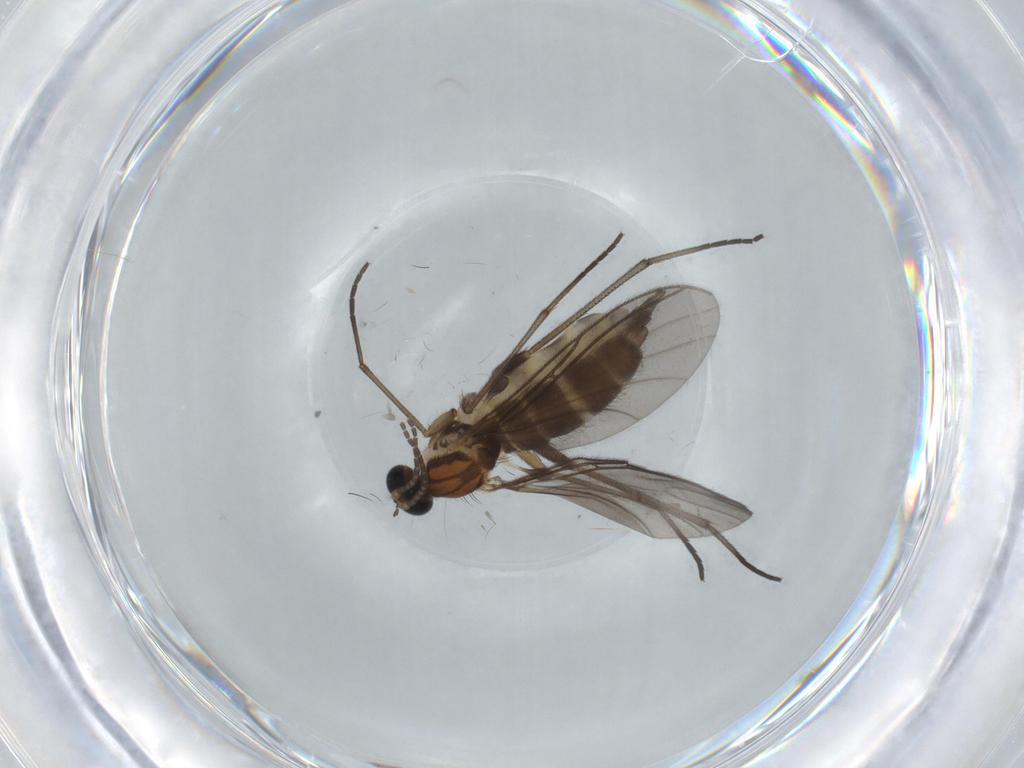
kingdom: Animalia
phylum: Arthropoda
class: Insecta
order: Diptera
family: Sciaridae
